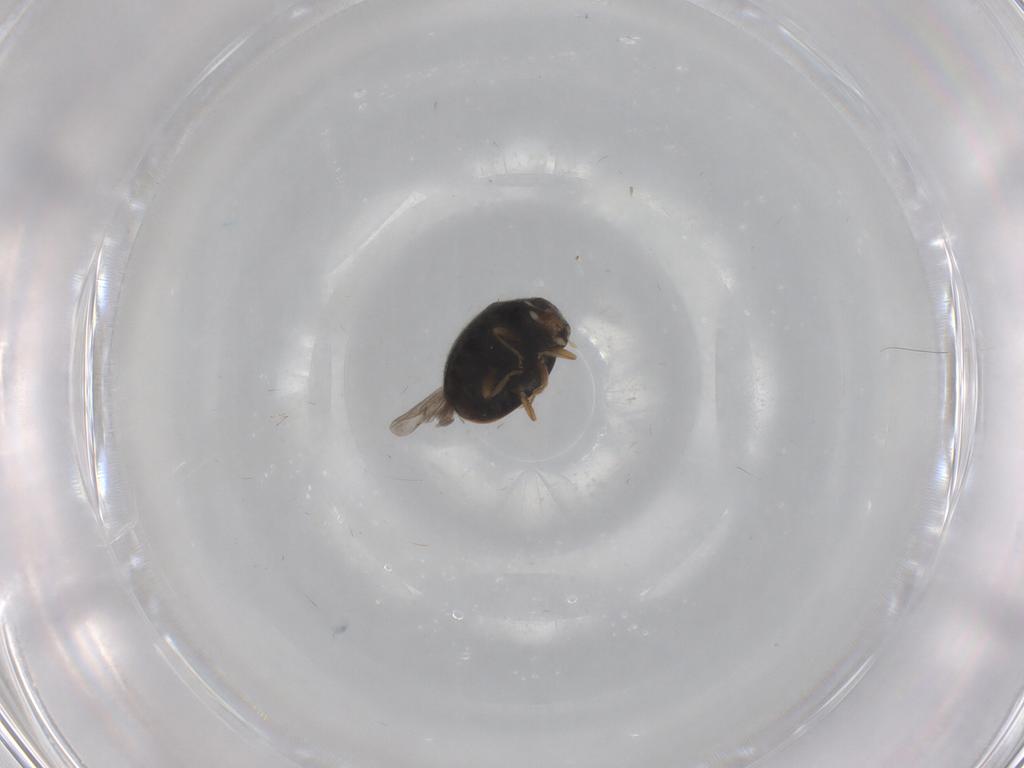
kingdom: Animalia
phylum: Arthropoda
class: Insecta
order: Coleoptera
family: Coccinellidae
